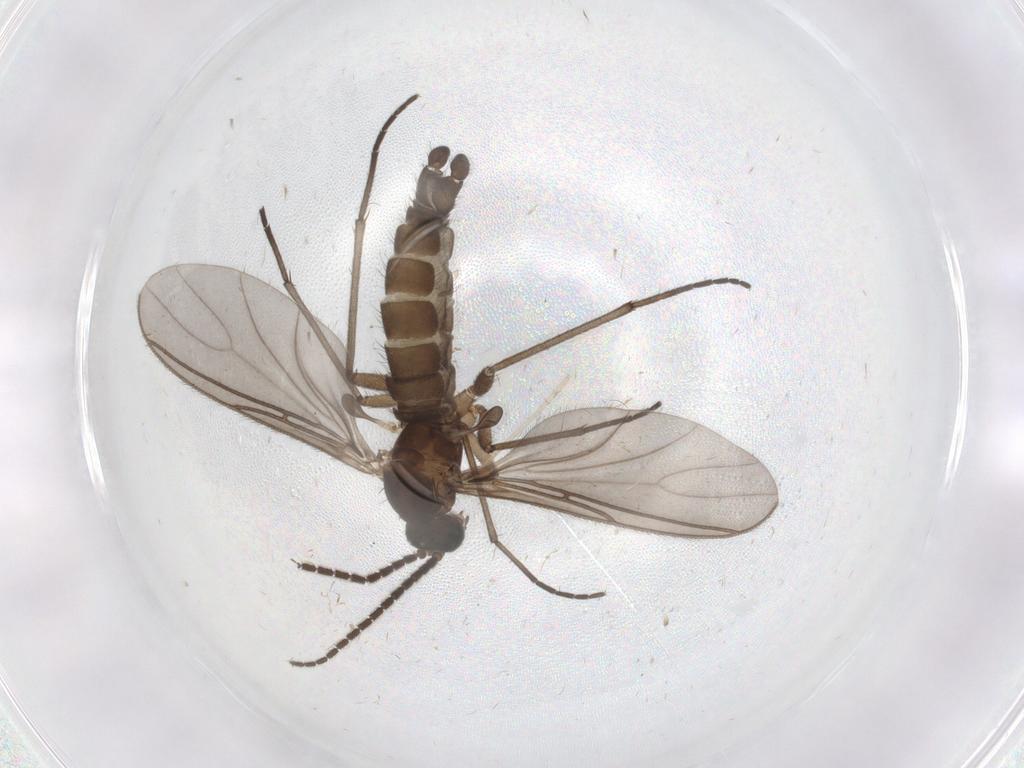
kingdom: Animalia
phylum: Arthropoda
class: Insecta
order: Diptera
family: Sciaridae
